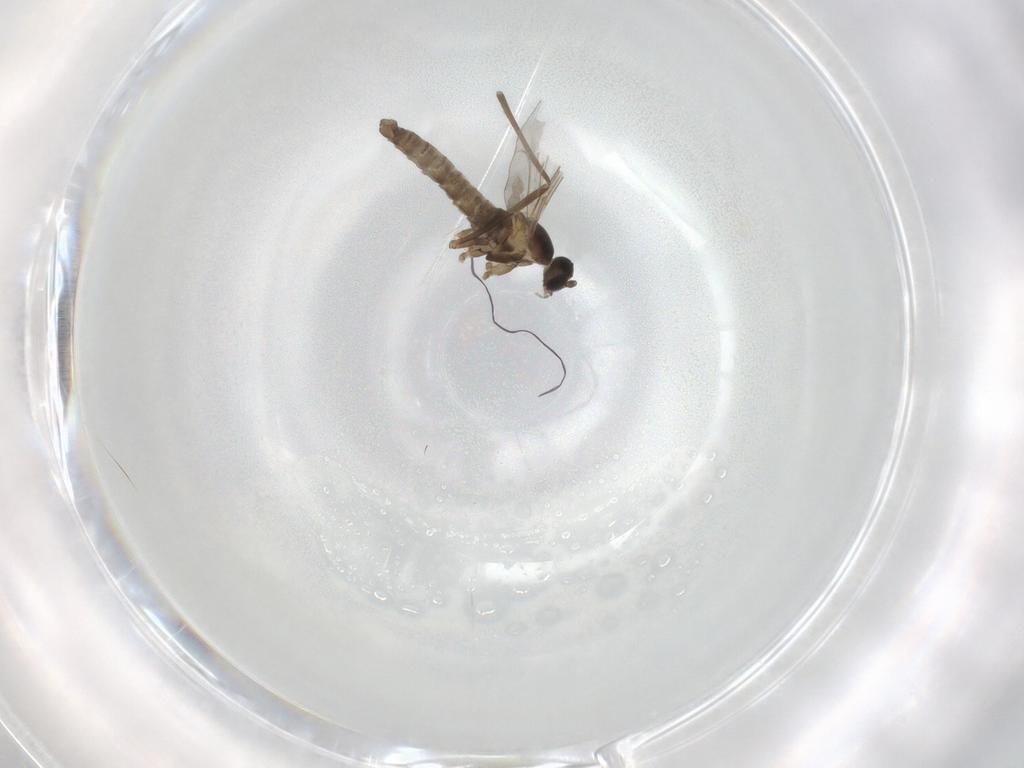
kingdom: Animalia
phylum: Arthropoda
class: Insecta
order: Diptera
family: Cecidomyiidae
